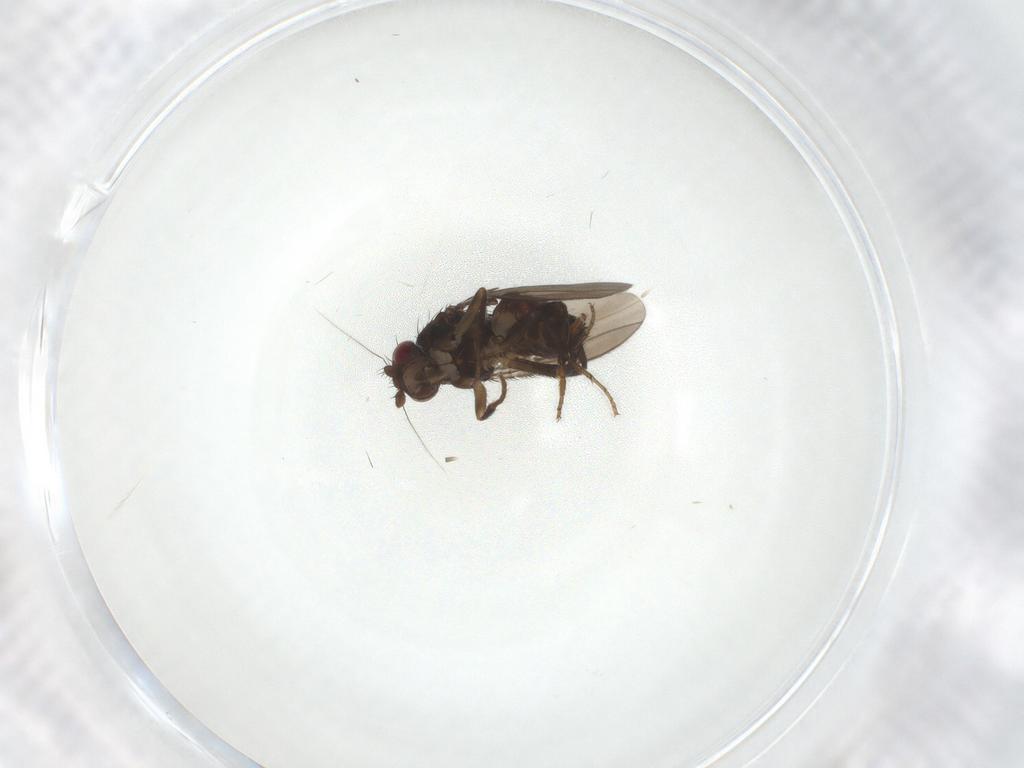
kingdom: Animalia
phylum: Arthropoda
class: Insecta
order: Diptera
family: Sphaeroceridae
